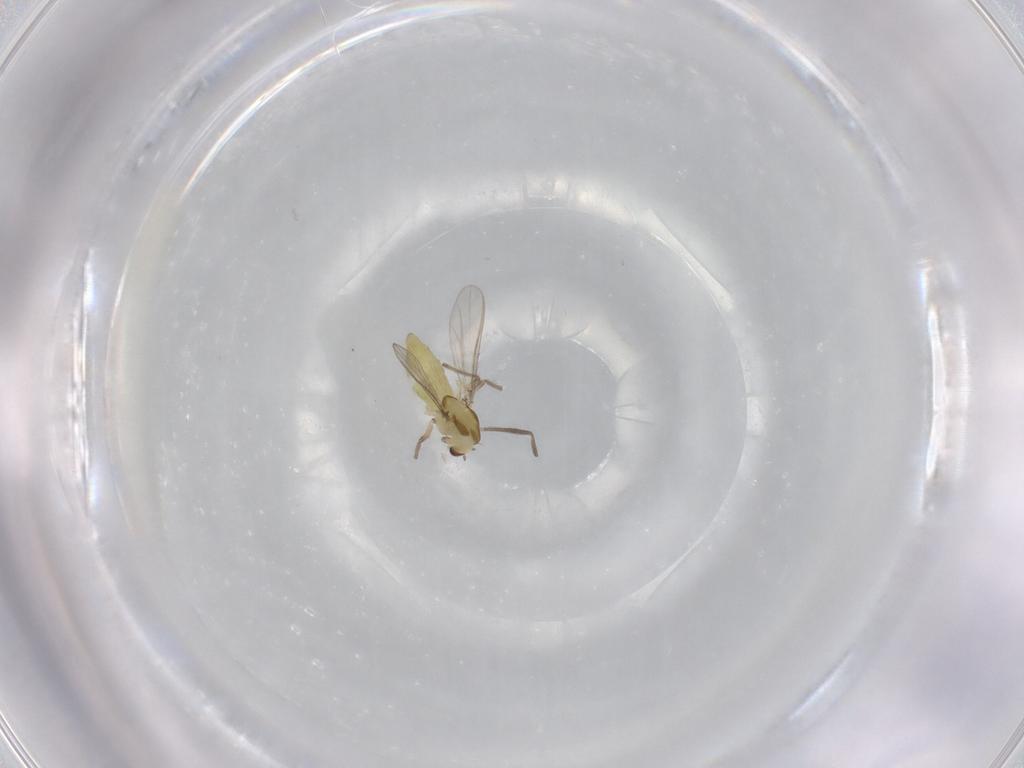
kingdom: Animalia
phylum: Arthropoda
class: Insecta
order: Diptera
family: Chironomidae
